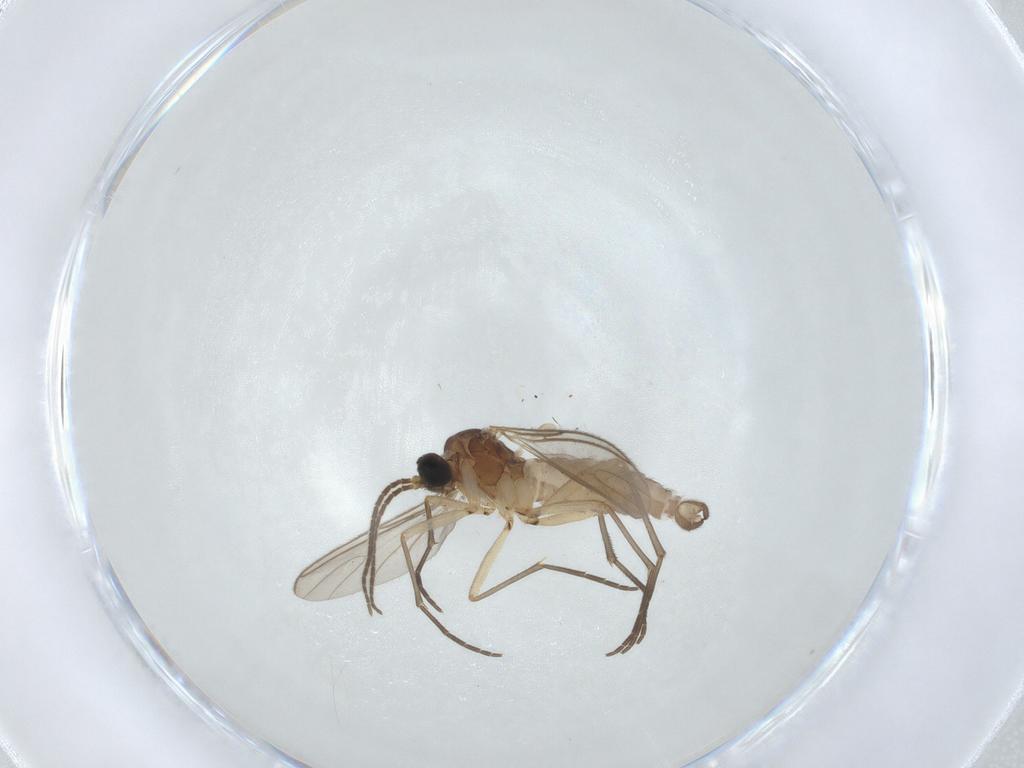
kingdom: Animalia
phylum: Arthropoda
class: Insecta
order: Diptera
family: Sciaridae
